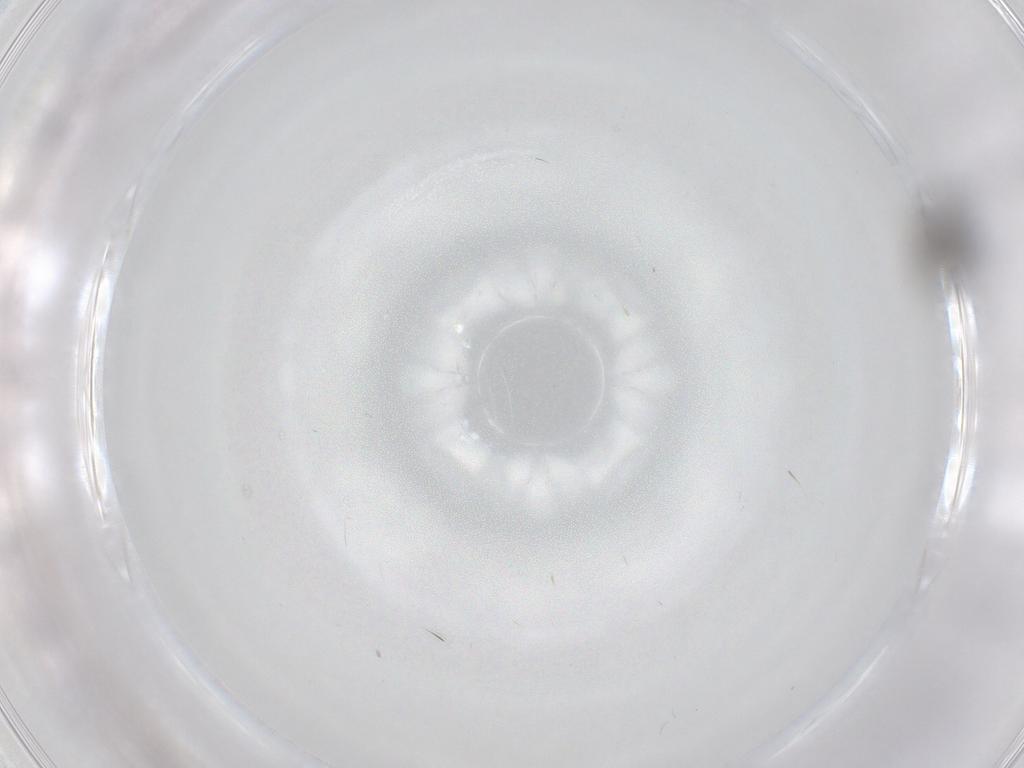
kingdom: Animalia
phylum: Arthropoda
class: Insecta
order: Diptera
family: Psychodidae
